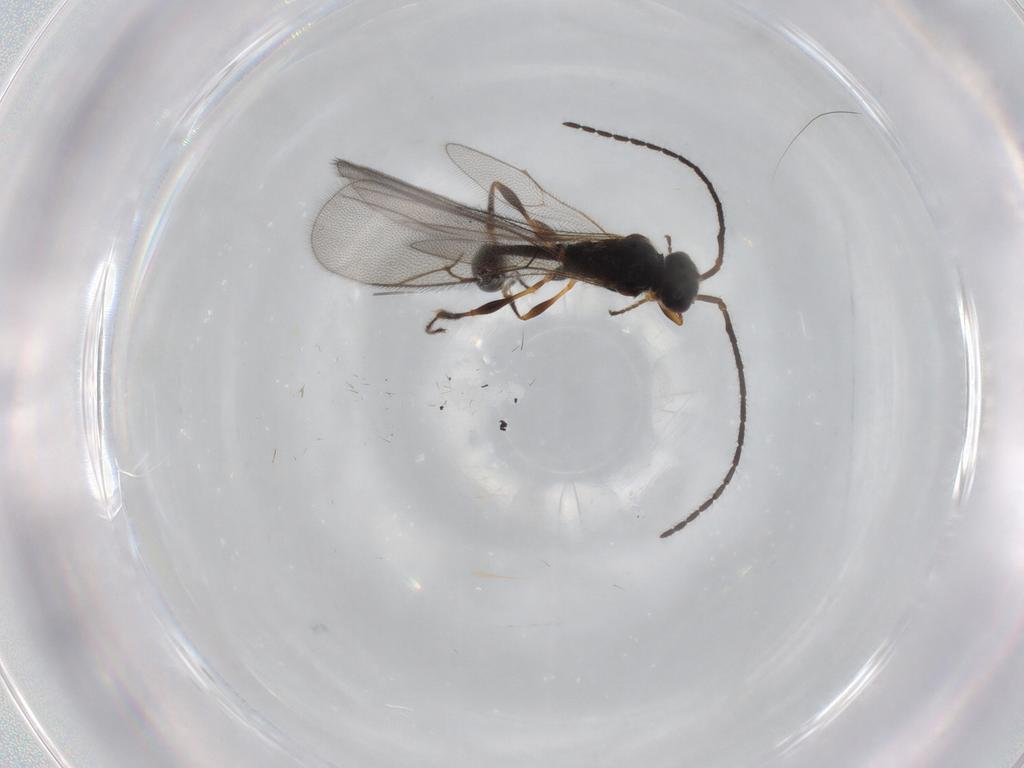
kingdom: Animalia
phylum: Arthropoda
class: Insecta
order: Hymenoptera
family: Diapriidae
